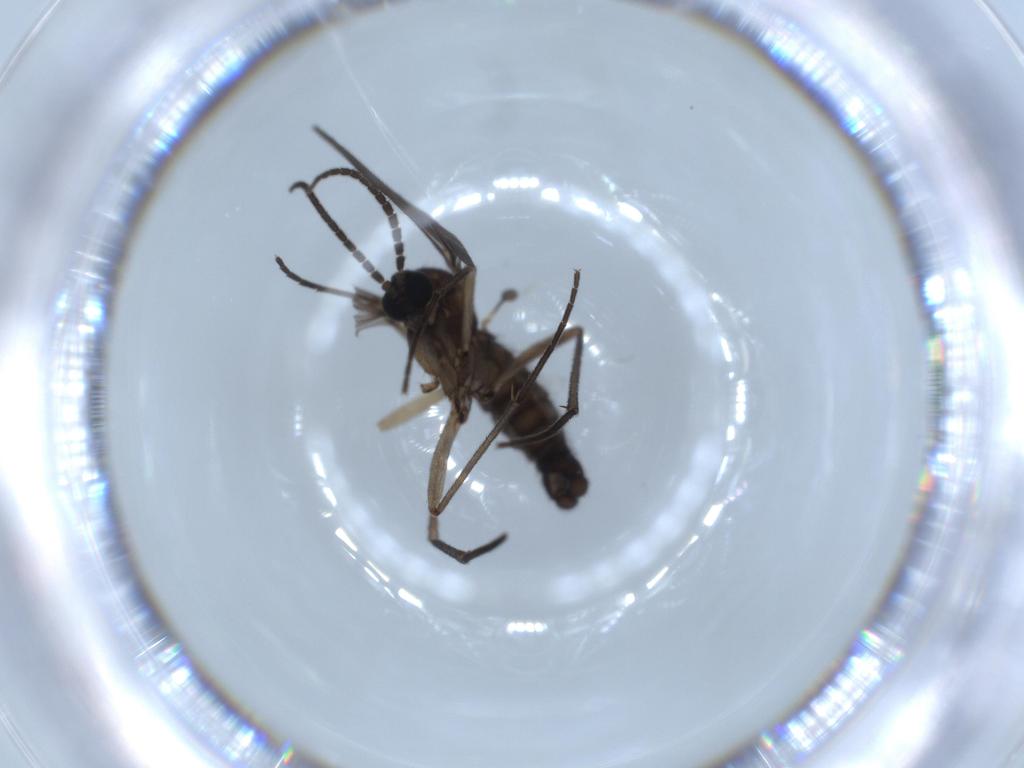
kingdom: Animalia
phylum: Arthropoda
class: Insecta
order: Diptera
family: Sciaridae
